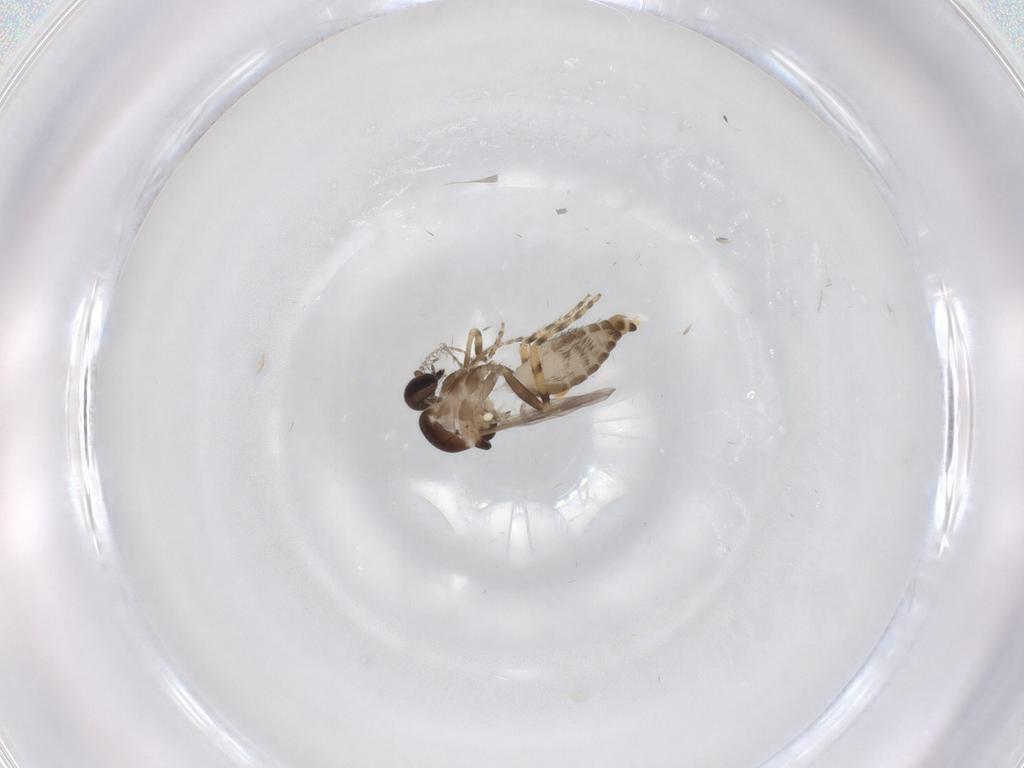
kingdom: Animalia
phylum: Arthropoda
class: Insecta
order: Diptera
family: Ceratopogonidae
